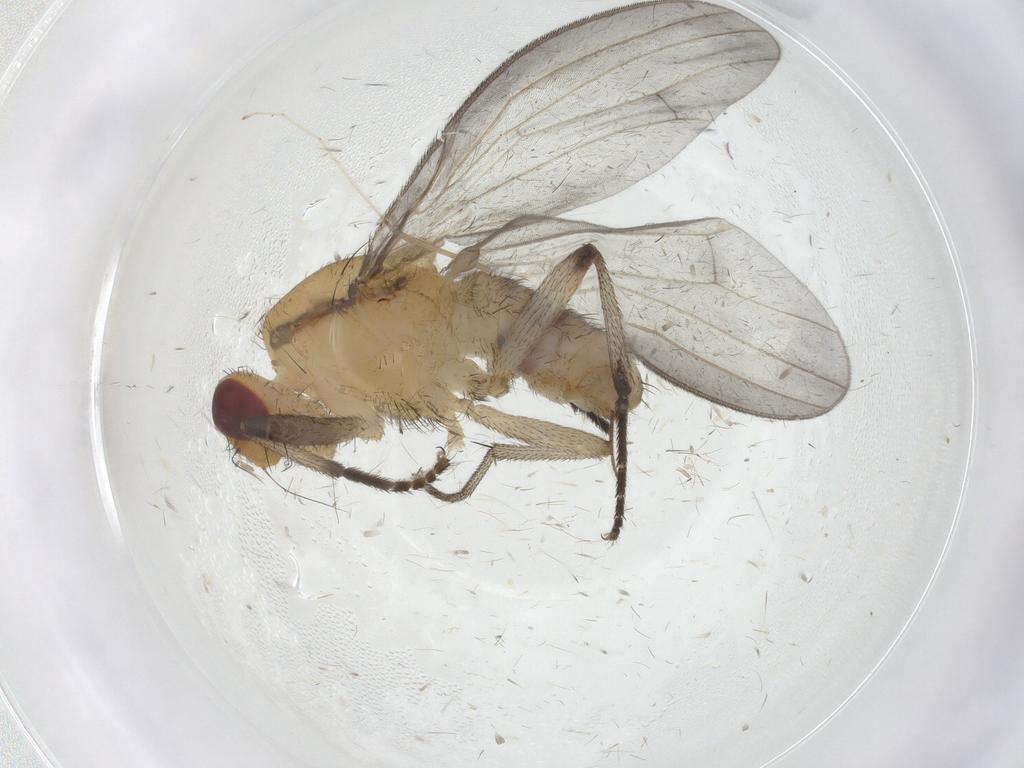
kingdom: Animalia
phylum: Arthropoda
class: Insecta
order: Diptera
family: Heleomyzidae
